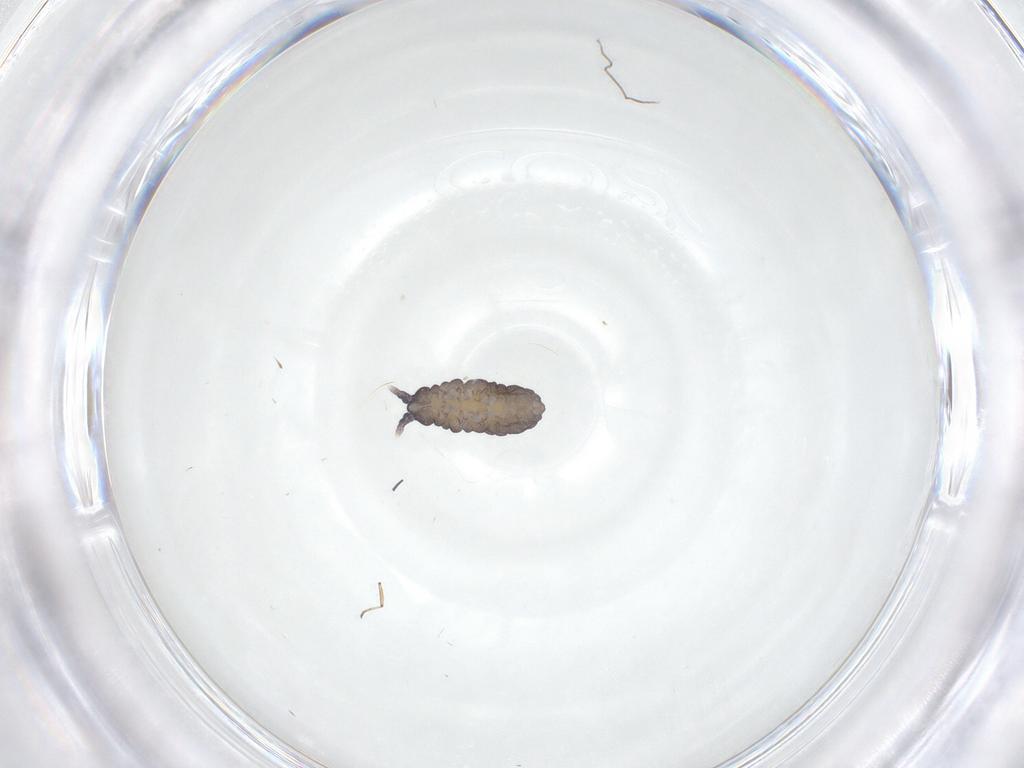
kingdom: Animalia
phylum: Arthropoda
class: Collembola
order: Poduromorpha
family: Neanuridae
